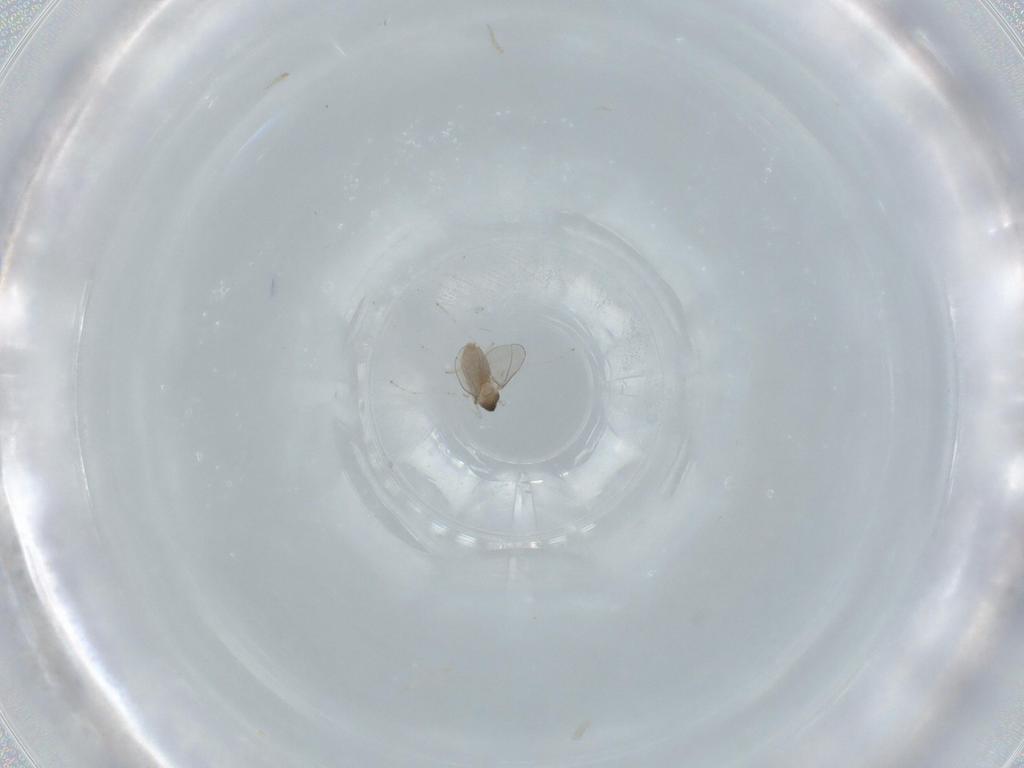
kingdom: Animalia
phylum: Arthropoda
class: Insecta
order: Diptera
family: Cecidomyiidae
